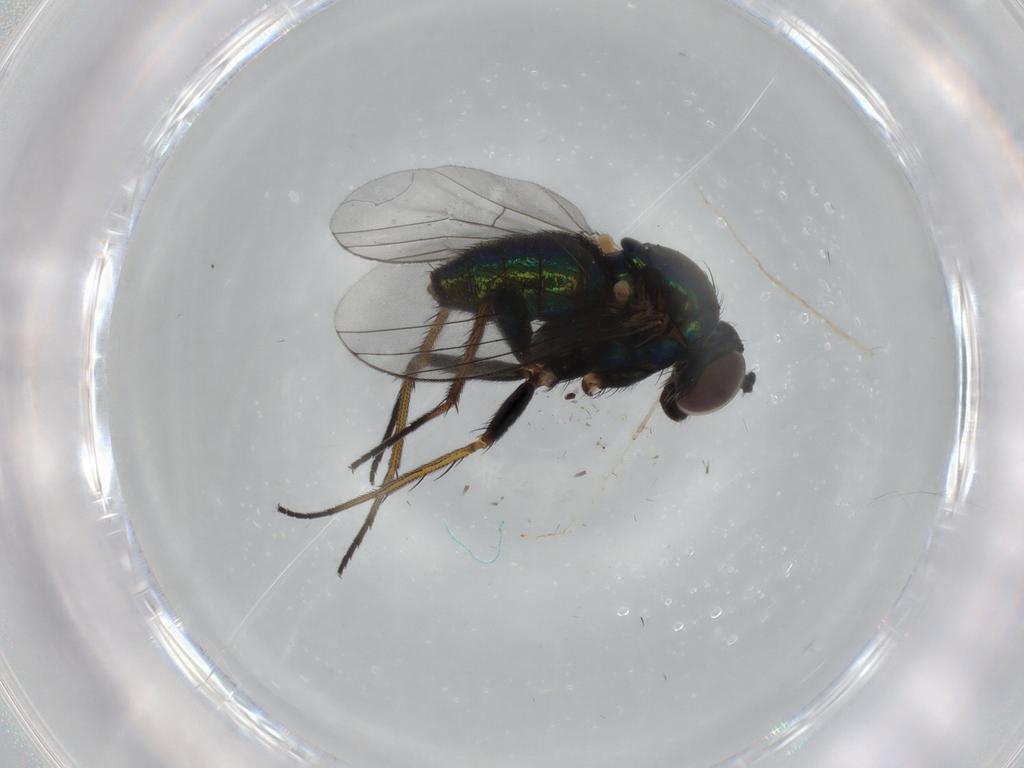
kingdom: Animalia
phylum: Arthropoda
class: Insecta
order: Diptera
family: Dolichopodidae
